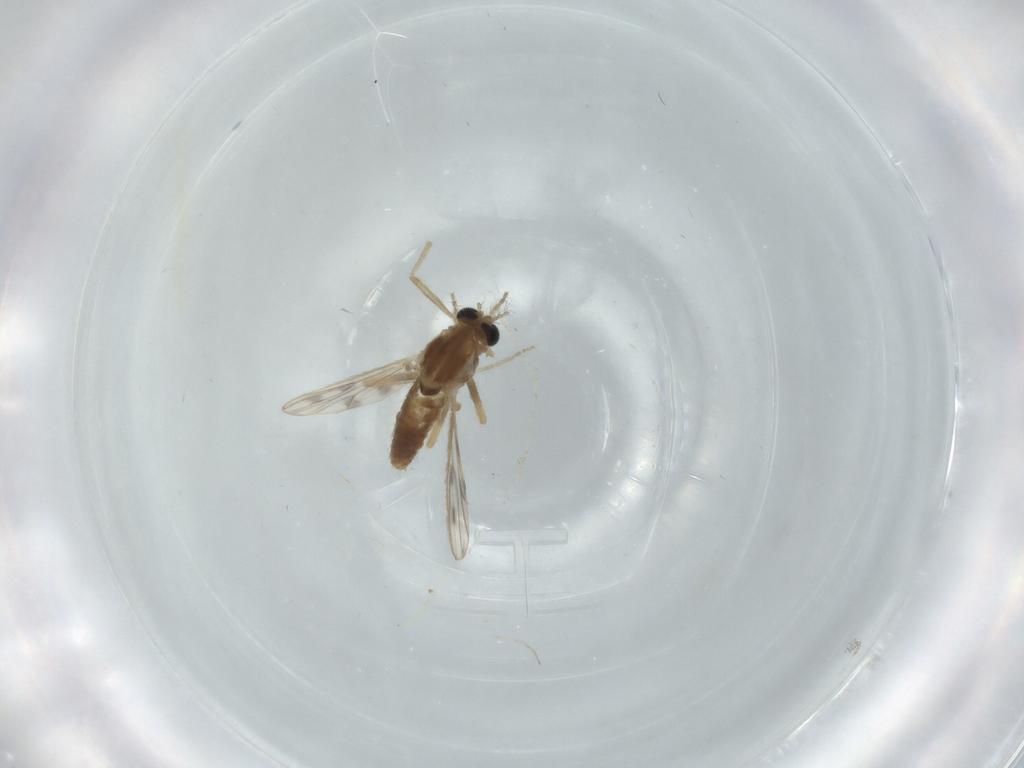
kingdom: Animalia
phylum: Arthropoda
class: Insecta
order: Diptera
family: Chironomidae
